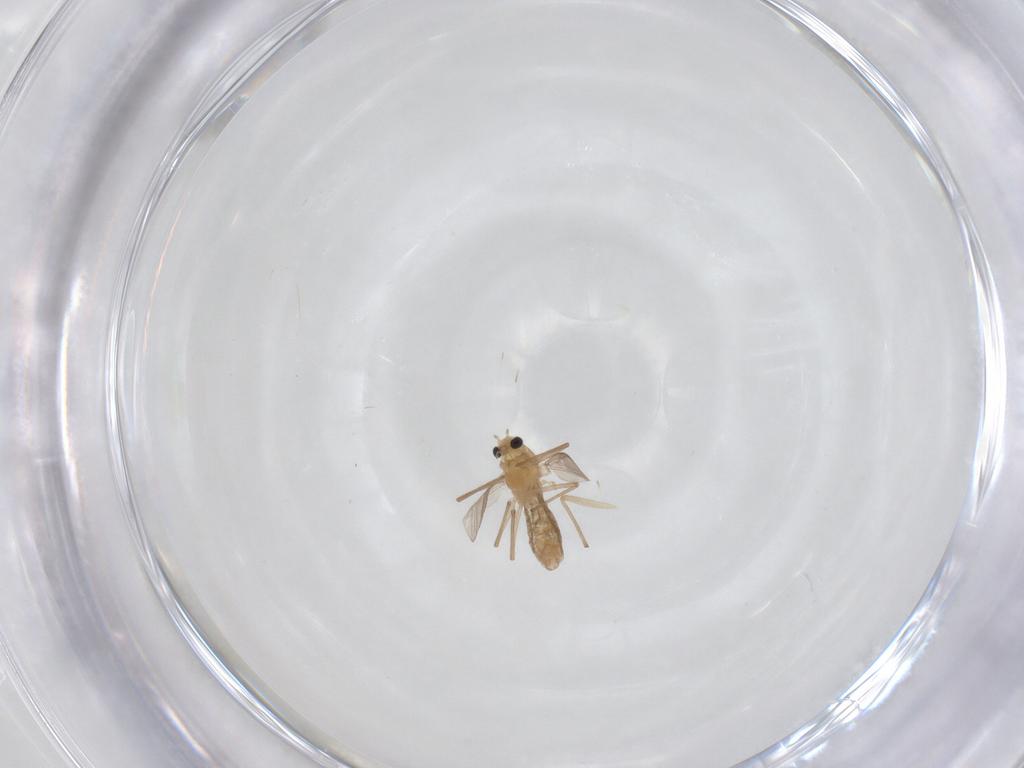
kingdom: Animalia
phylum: Arthropoda
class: Insecta
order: Diptera
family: Chironomidae
